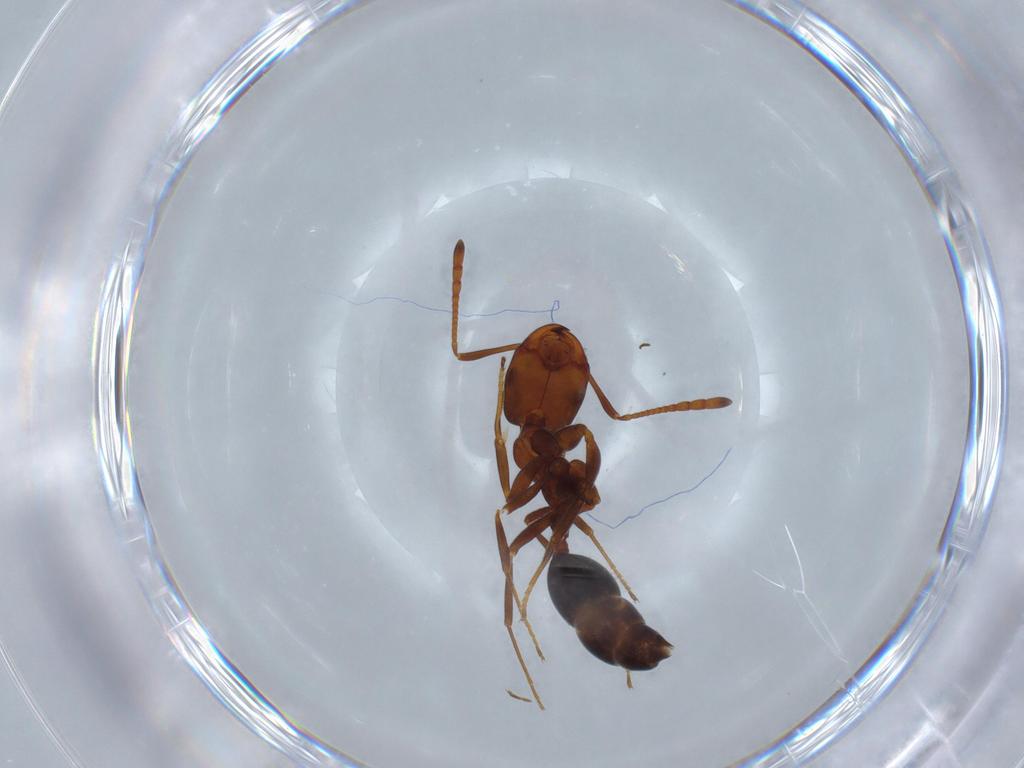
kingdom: Animalia
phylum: Arthropoda
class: Insecta
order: Hymenoptera
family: Formicidae
